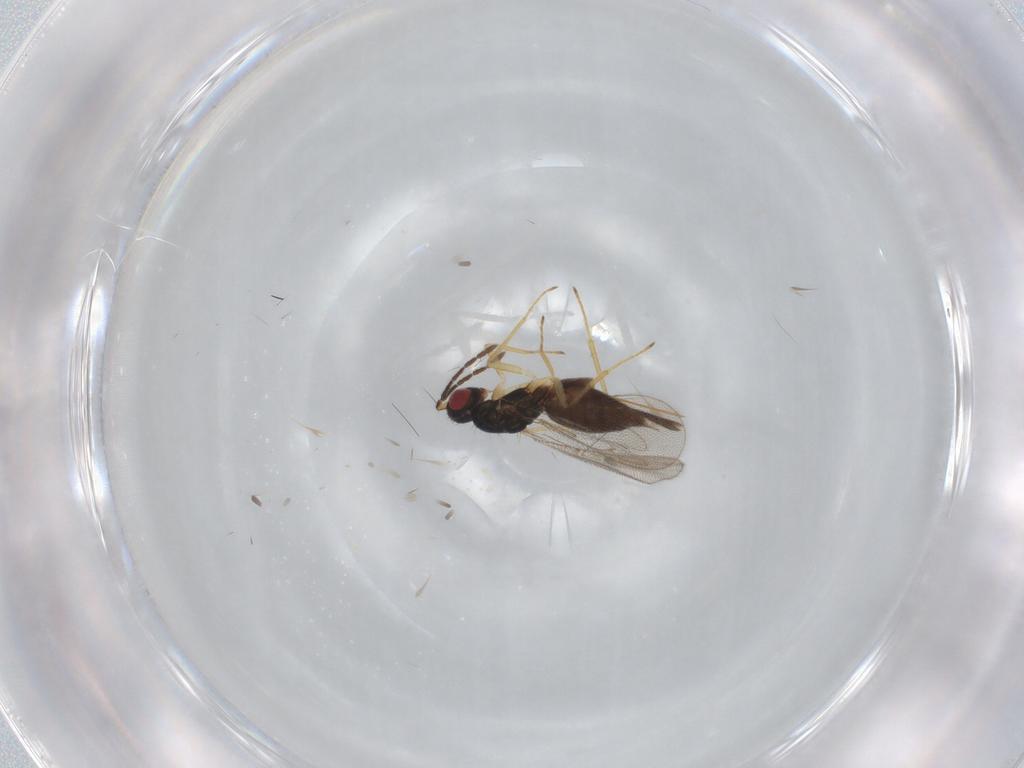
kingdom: Animalia
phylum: Arthropoda
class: Insecta
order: Hymenoptera
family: Eulophidae
